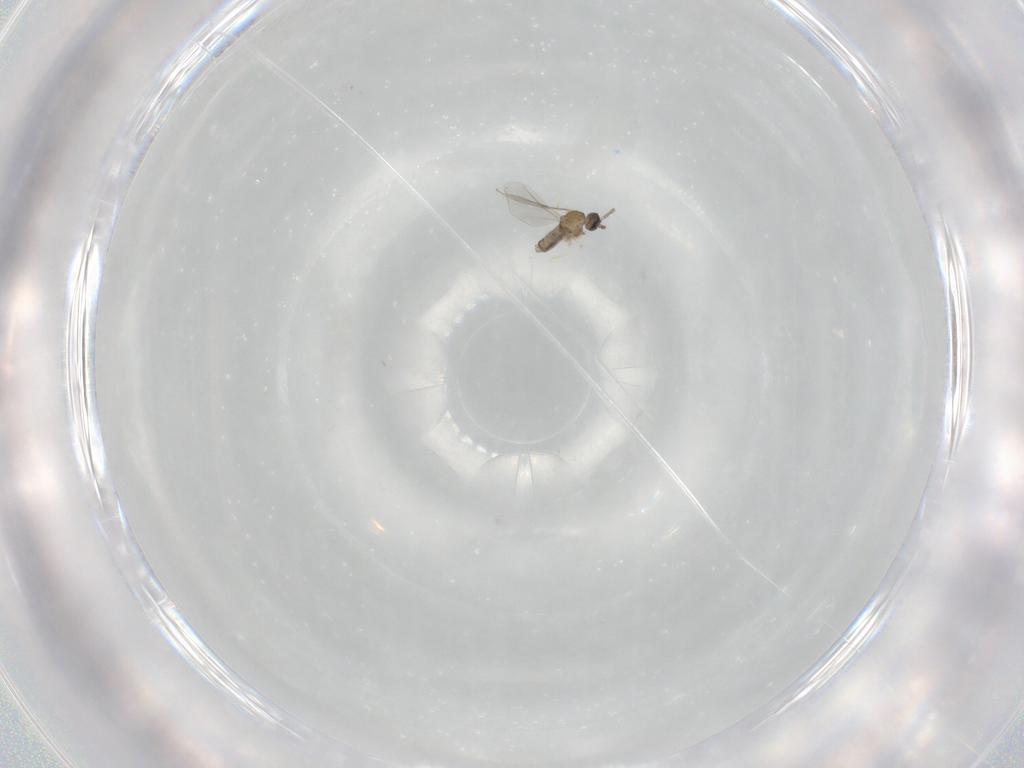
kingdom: Animalia
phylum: Arthropoda
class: Insecta
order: Diptera
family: Cecidomyiidae
